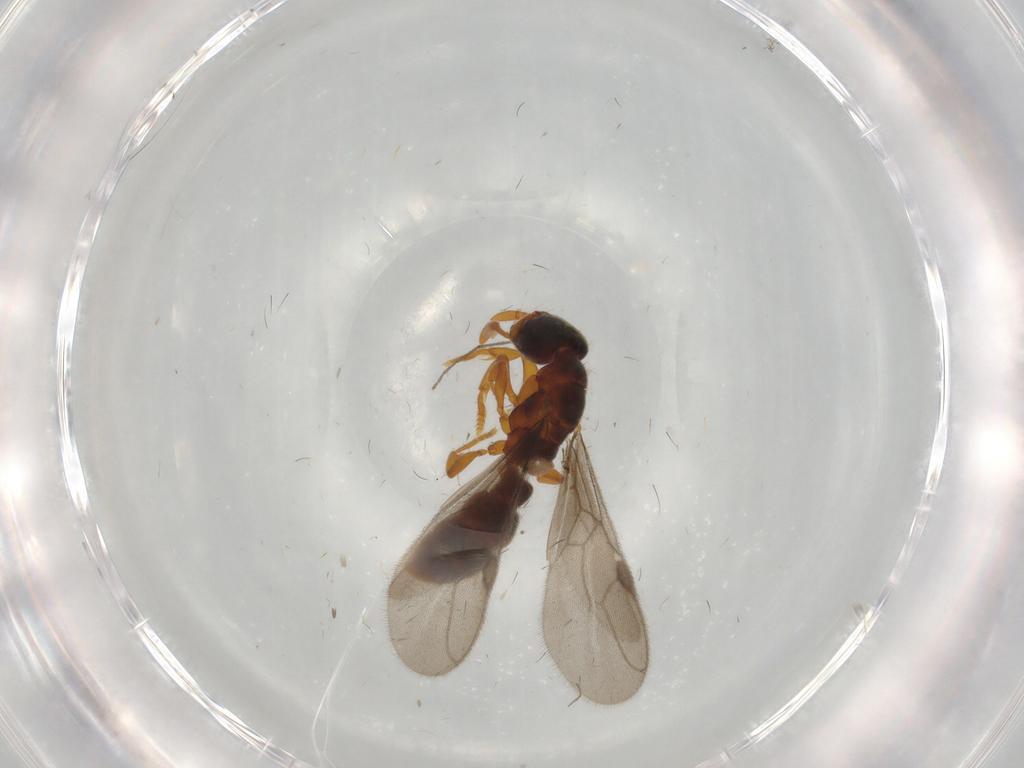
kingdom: Animalia
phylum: Arthropoda
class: Insecta
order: Hymenoptera
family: Formicidae
